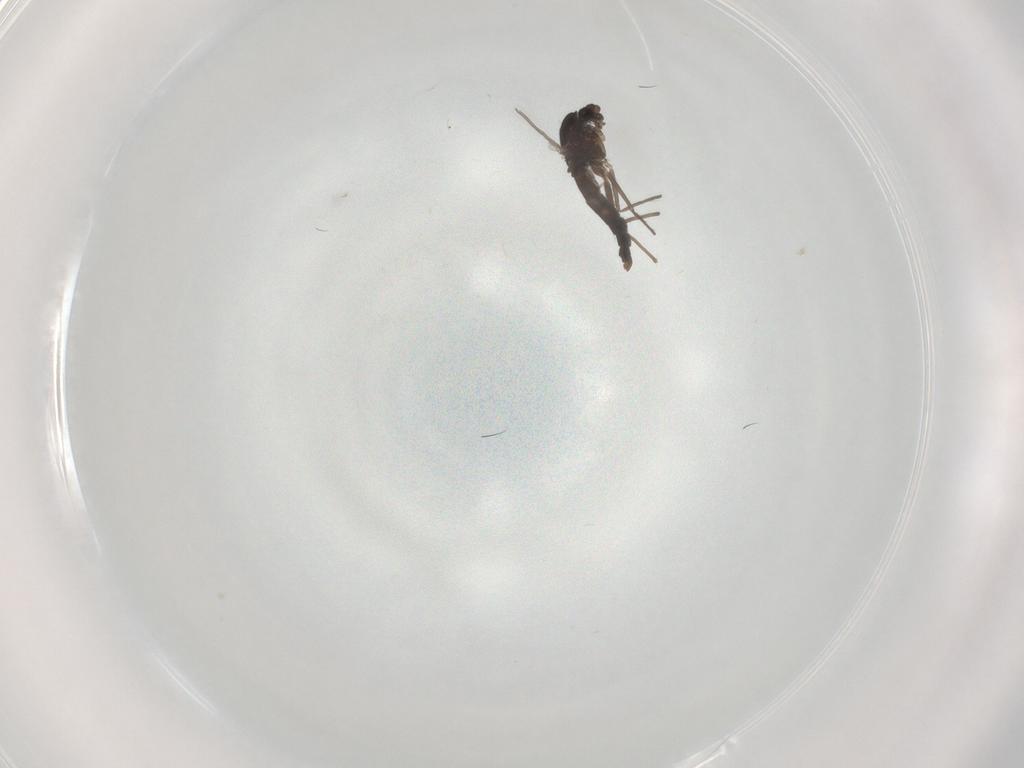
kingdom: Animalia
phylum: Arthropoda
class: Insecta
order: Diptera
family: Chironomidae
